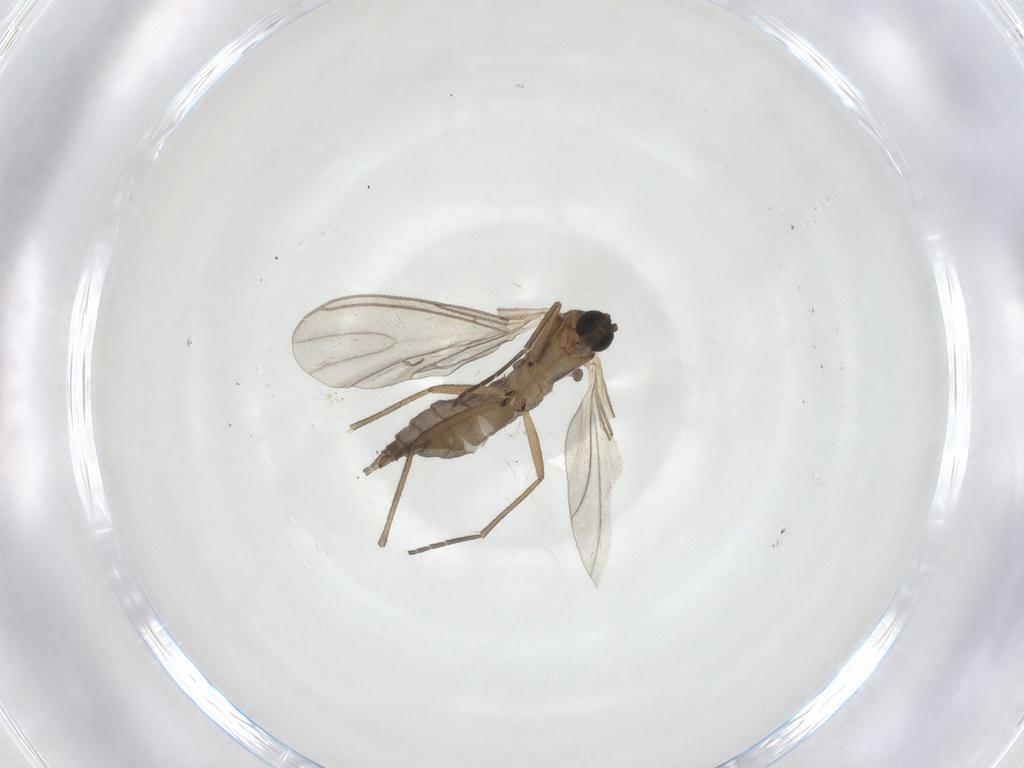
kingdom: Animalia
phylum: Arthropoda
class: Insecta
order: Diptera
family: Sciaridae
